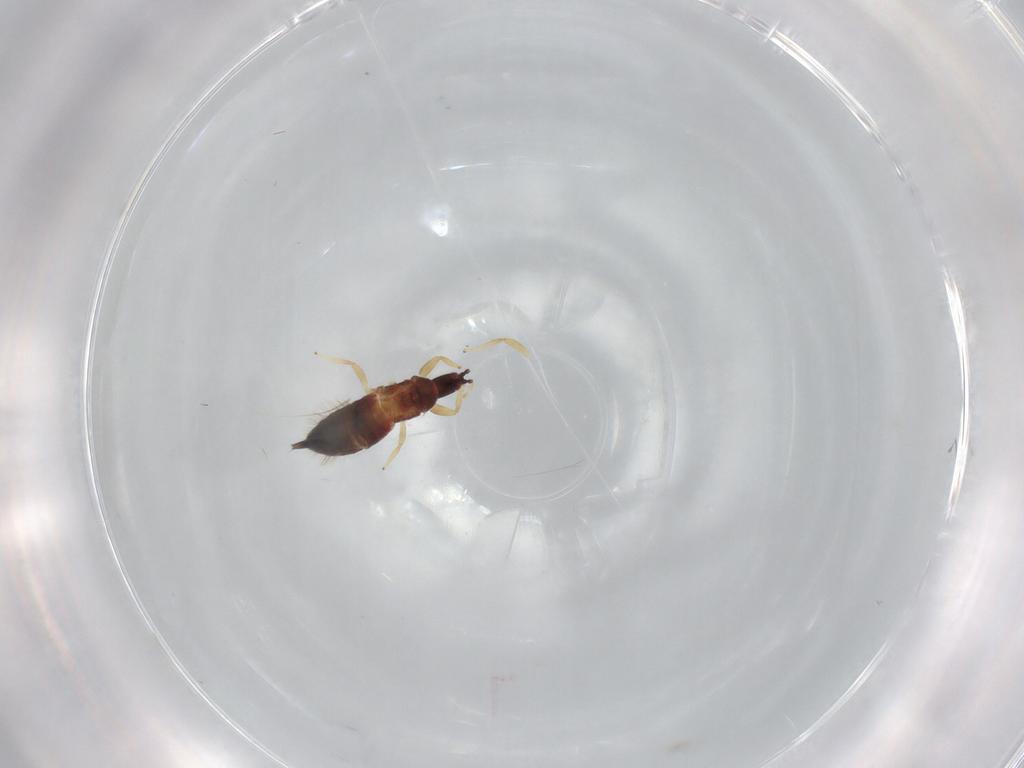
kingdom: Animalia
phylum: Arthropoda
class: Insecta
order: Thysanoptera
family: Phlaeothripidae
